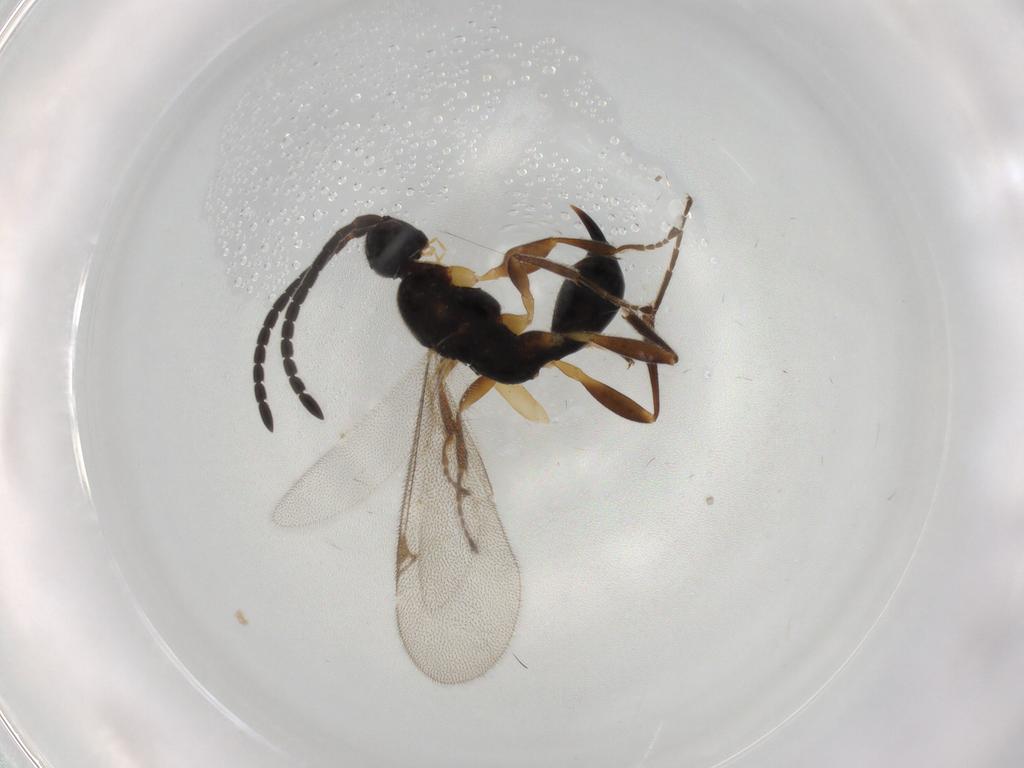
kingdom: Animalia
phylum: Arthropoda
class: Insecta
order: Hymenoptera
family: Proctotrupidae
